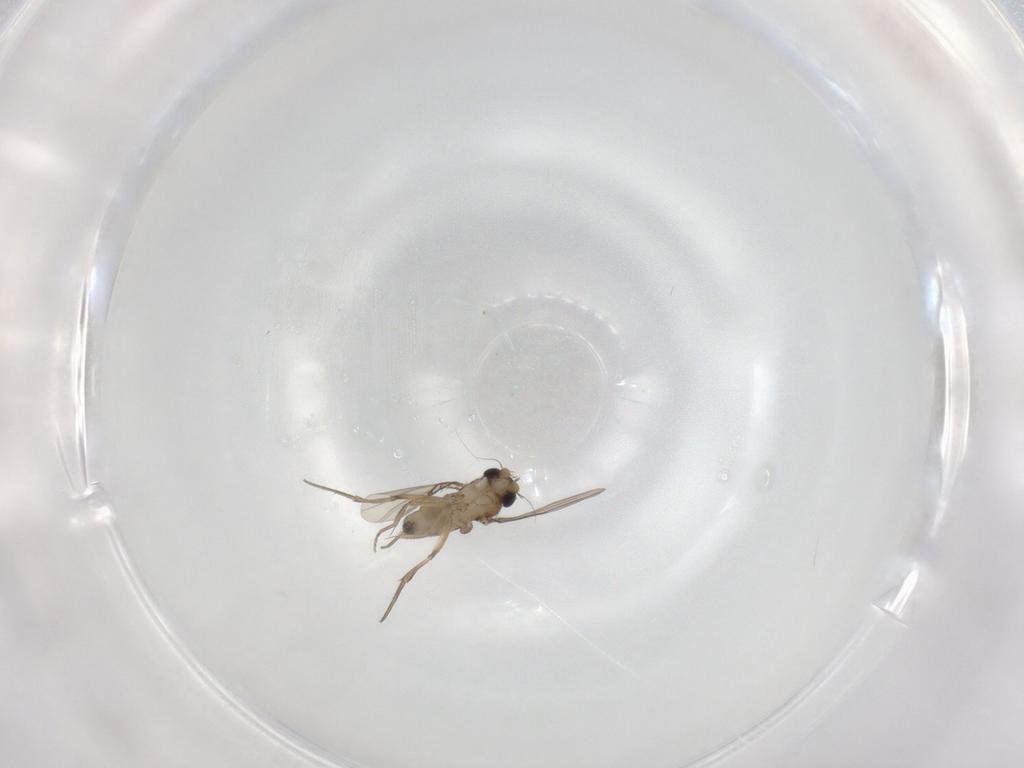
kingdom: Animalia
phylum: Arthropoda
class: Insecta
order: Diptera
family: Phoridae
